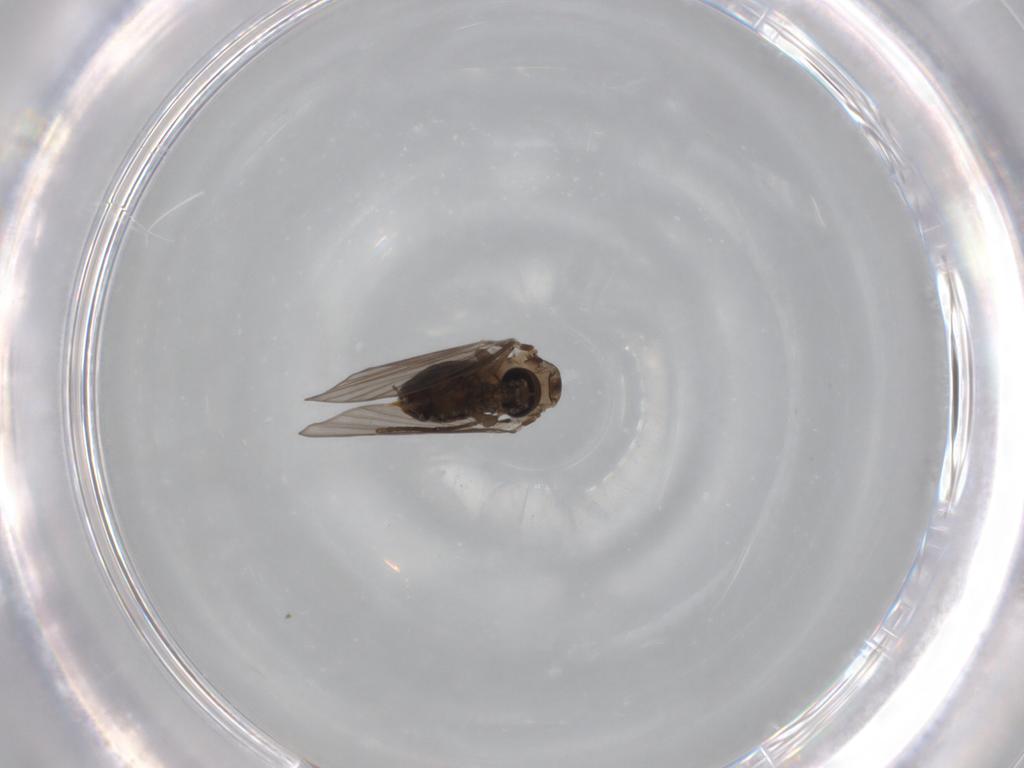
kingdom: Animalia
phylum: Arthropoda
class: Insecta
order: Diptera
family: Psychodidae
